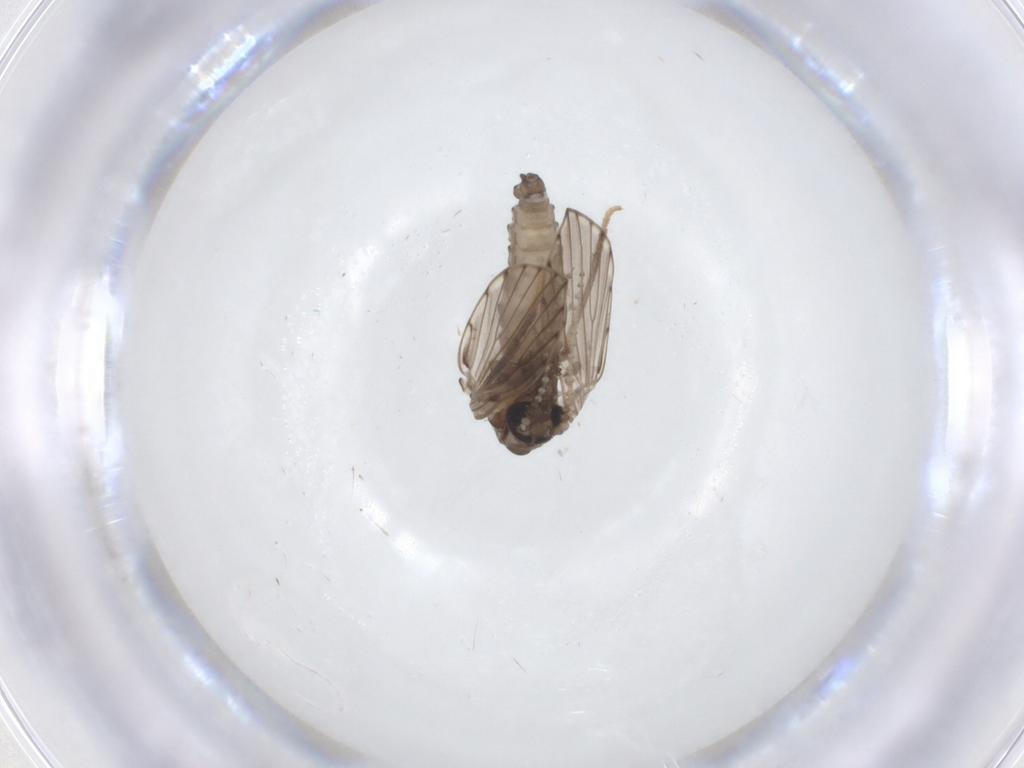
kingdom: Animalia
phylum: Arthropoda
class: Insecta
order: Diptera
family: Psychodidae
